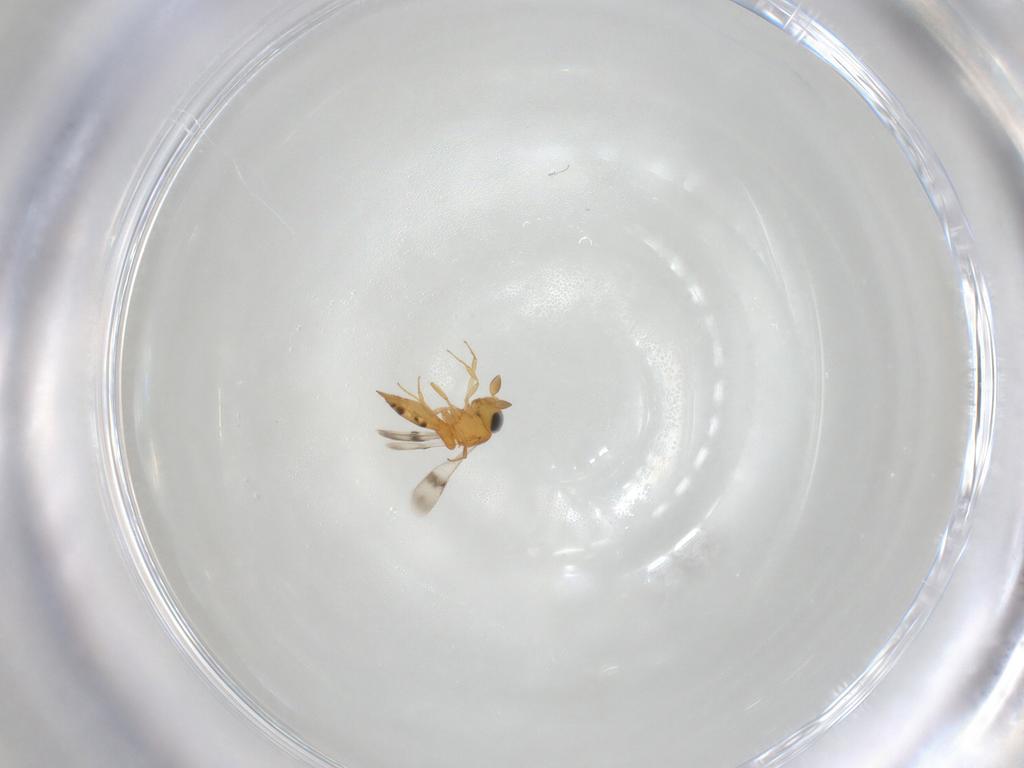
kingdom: Animalia
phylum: Arthropoda
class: Insecta
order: Hymenoptera
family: Scelionidae
